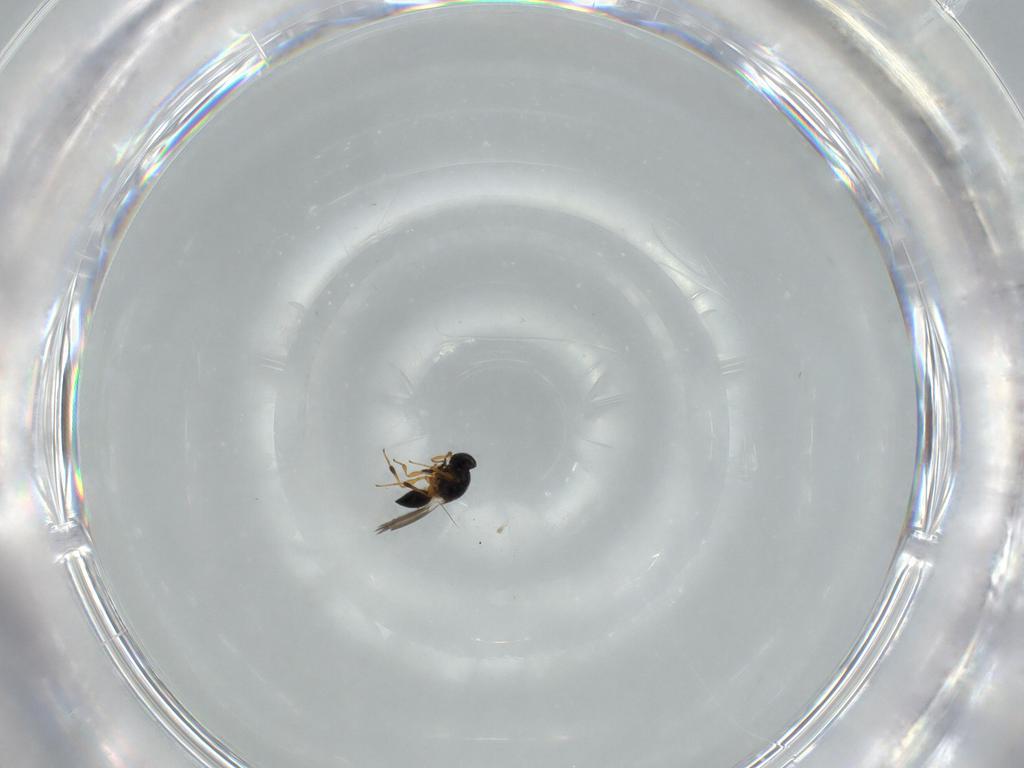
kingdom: Animalia
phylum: Arthropoda
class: Insecta
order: Hymenoptera
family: Platygastridae
